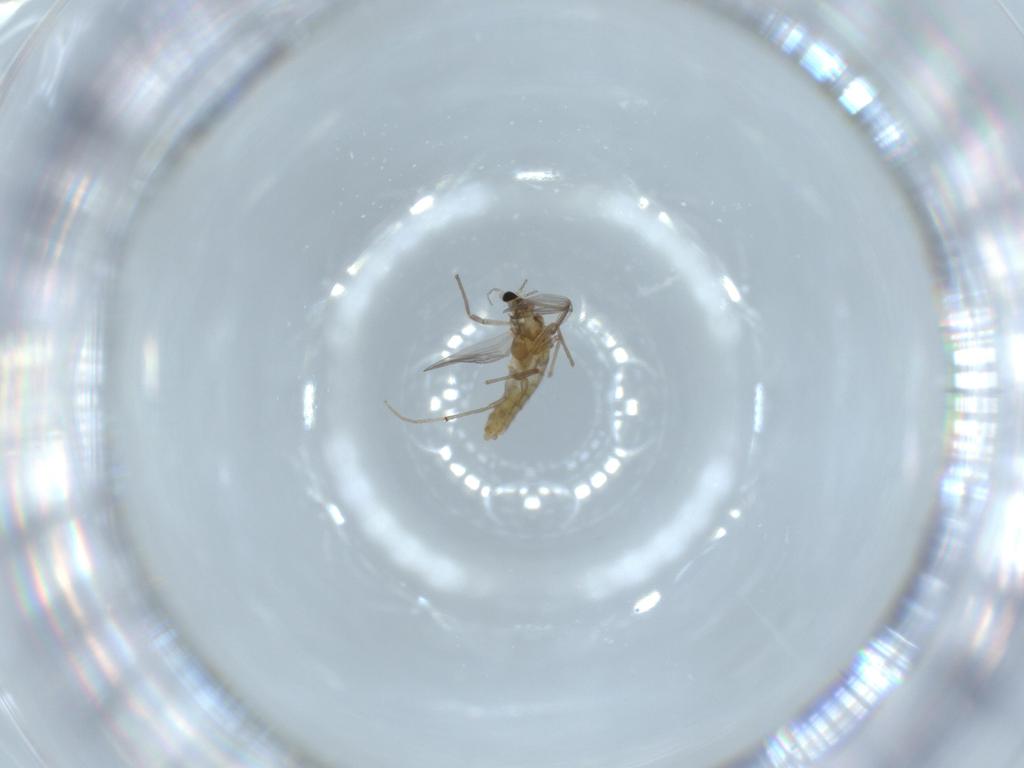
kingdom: Animalia
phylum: Arthropoda
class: Insecta
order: Diptera
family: Chironomidae
